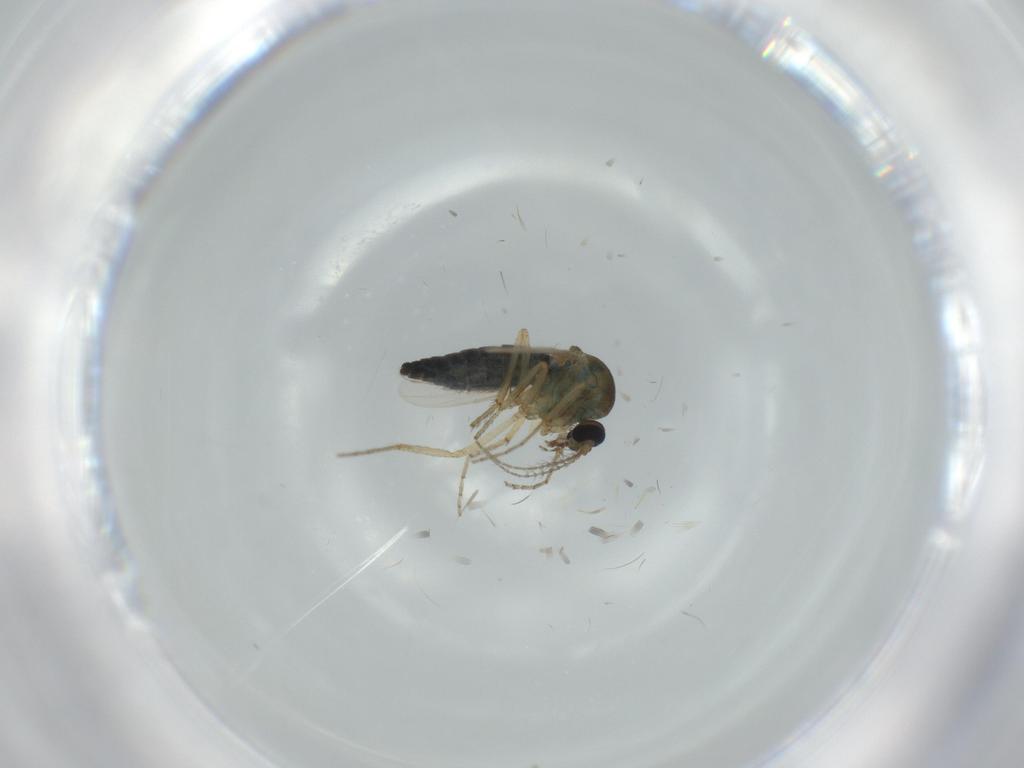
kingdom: Animalia
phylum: Arthropoda
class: Insecta
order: Diptera
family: Ceratopogonidae
